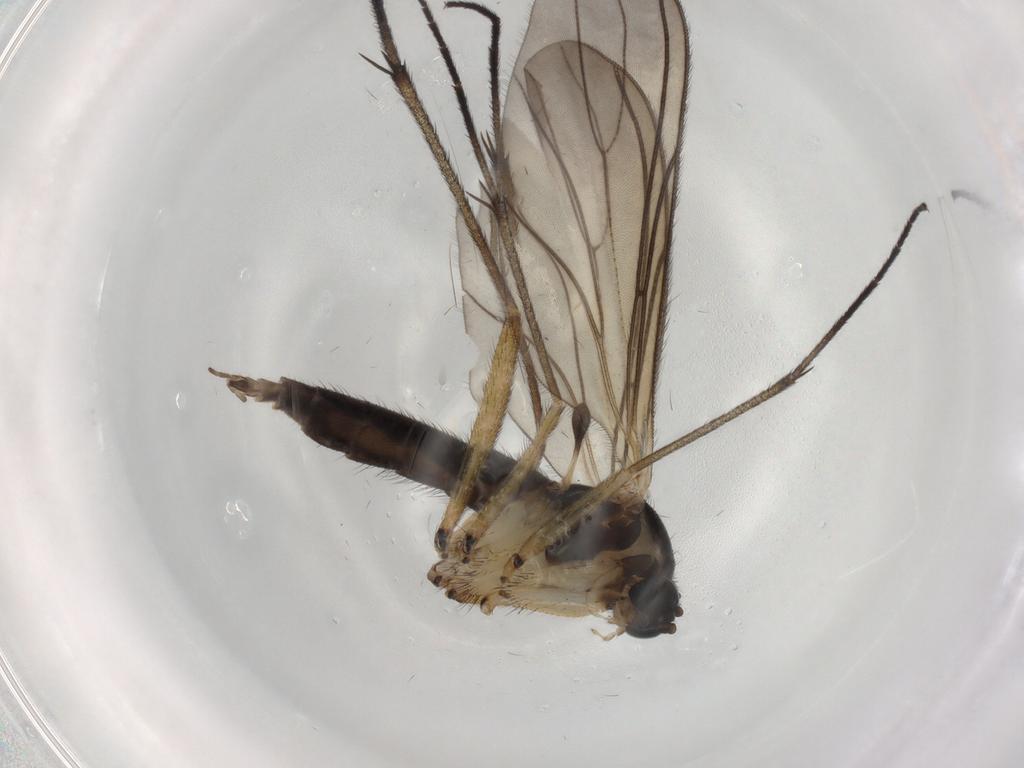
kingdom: Animalia
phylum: Arthropoda
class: Insecta
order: Diptera
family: Sciaridae
